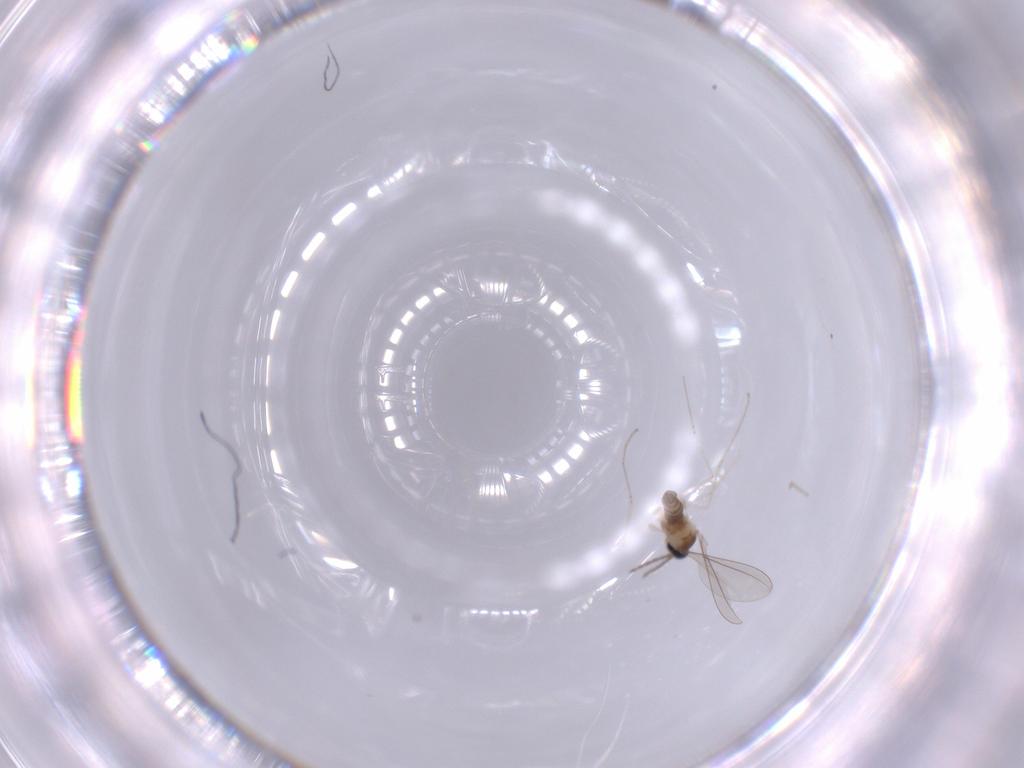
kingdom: Animalia
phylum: Arthropoda
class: Insecta
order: Diptera
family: Cecidomyiidae
